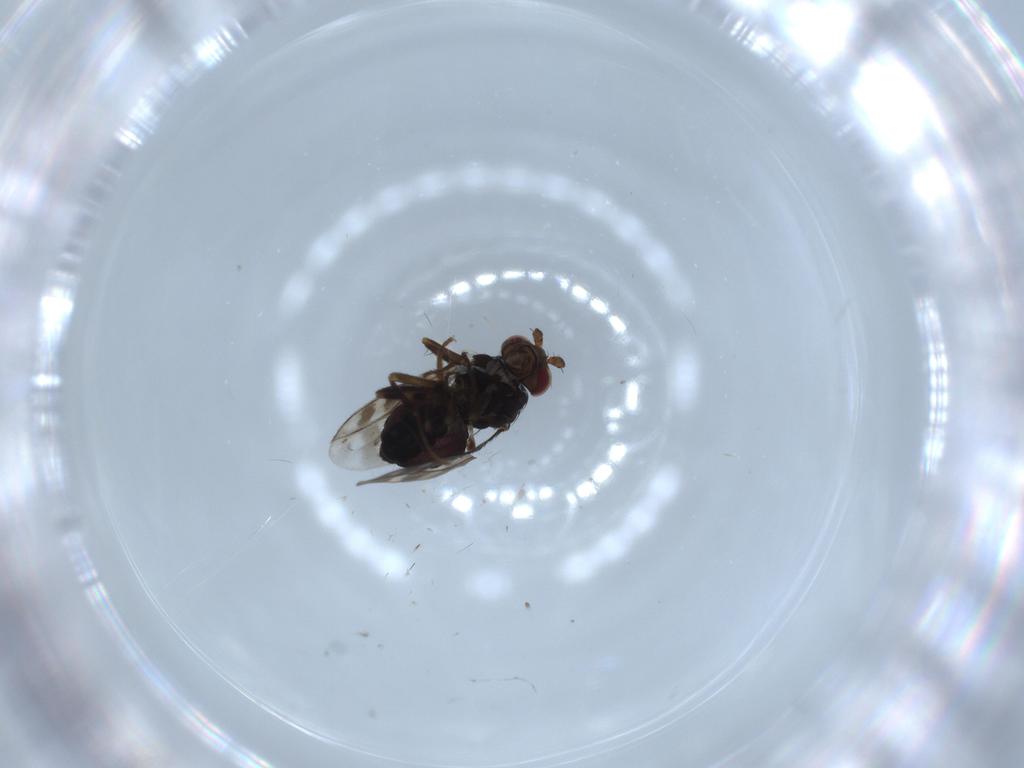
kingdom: Animalia
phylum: Arthropoda
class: Insecta
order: Diptera
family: Sphaeroceridae
